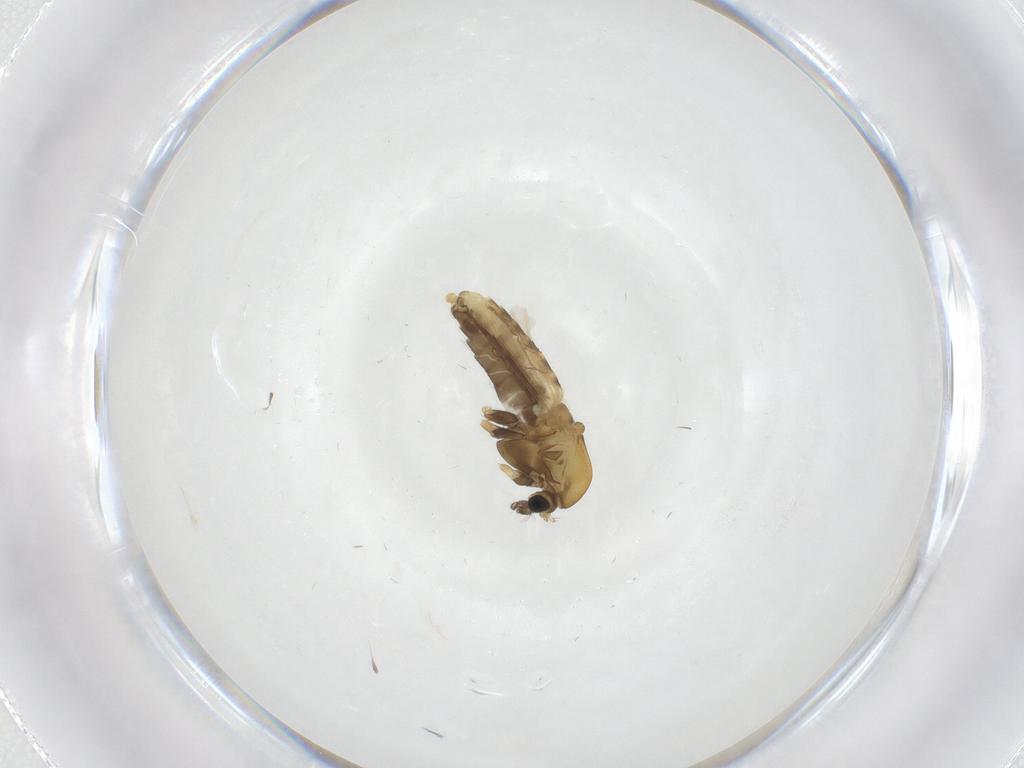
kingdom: Animalia
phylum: Arthropoda
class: Insecta
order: Diptera
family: Chironomidae
